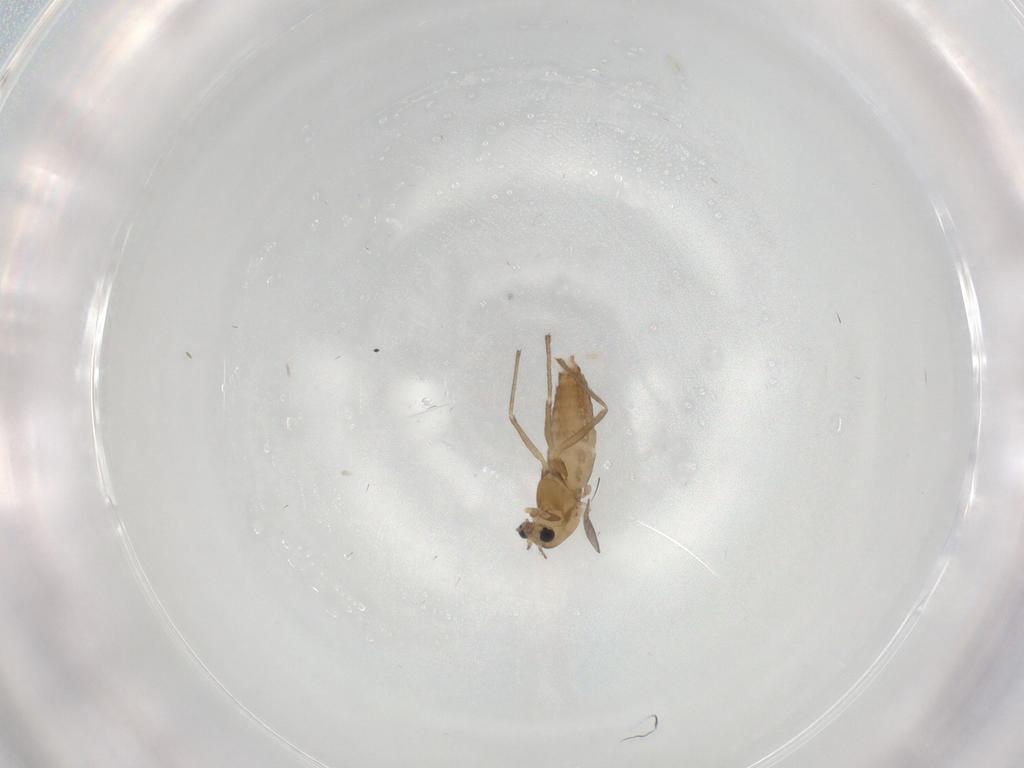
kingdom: Animalia
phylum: Arthropoda
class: Insecta
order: Diptera
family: Chironomidae
